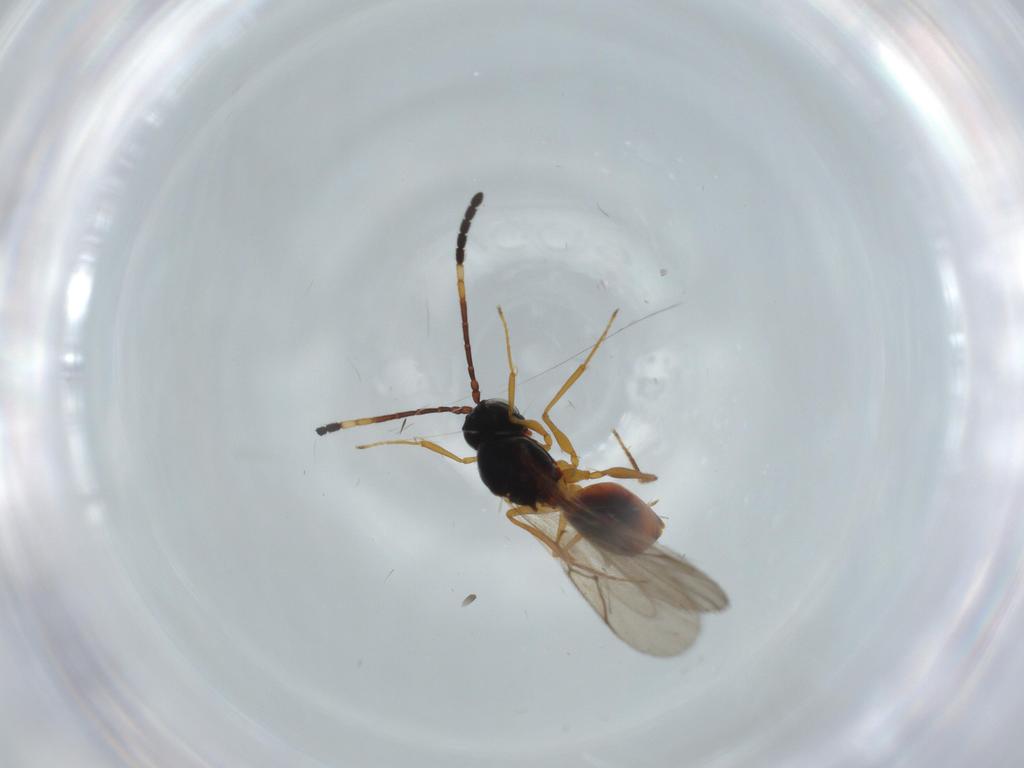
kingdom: Animalia
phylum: Arthropoda
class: Insecta
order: Hymenoptera
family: Figitidae
